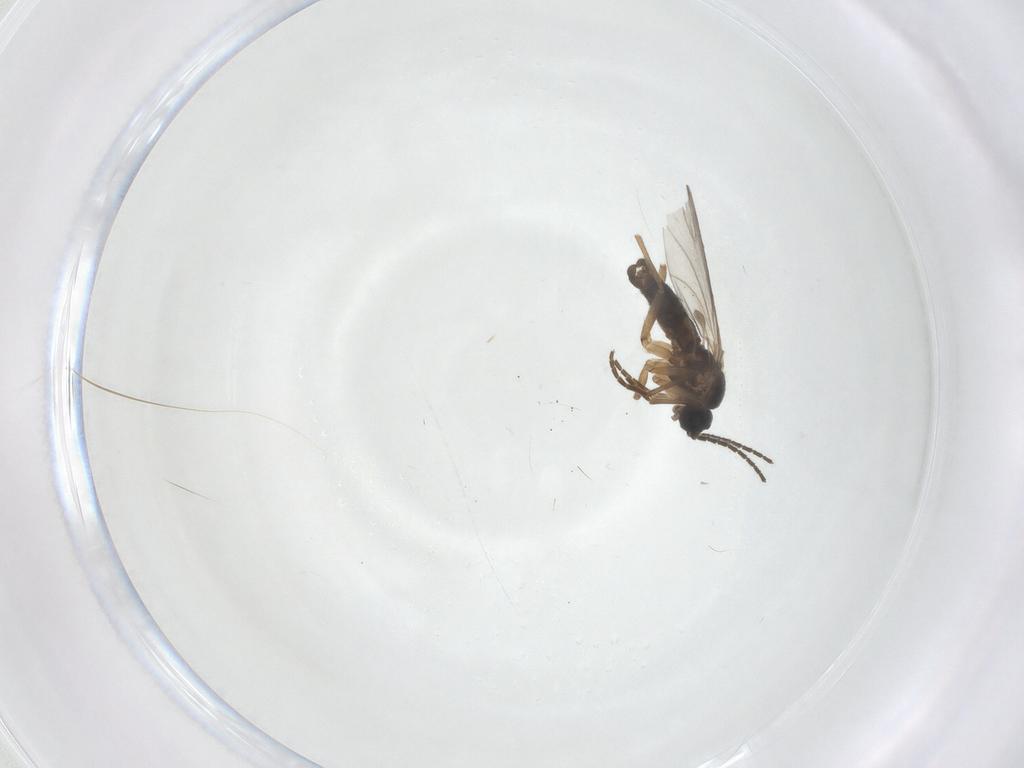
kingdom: Animalia
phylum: Arthropoda
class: Insecta
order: Diptera
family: Sciaridae
